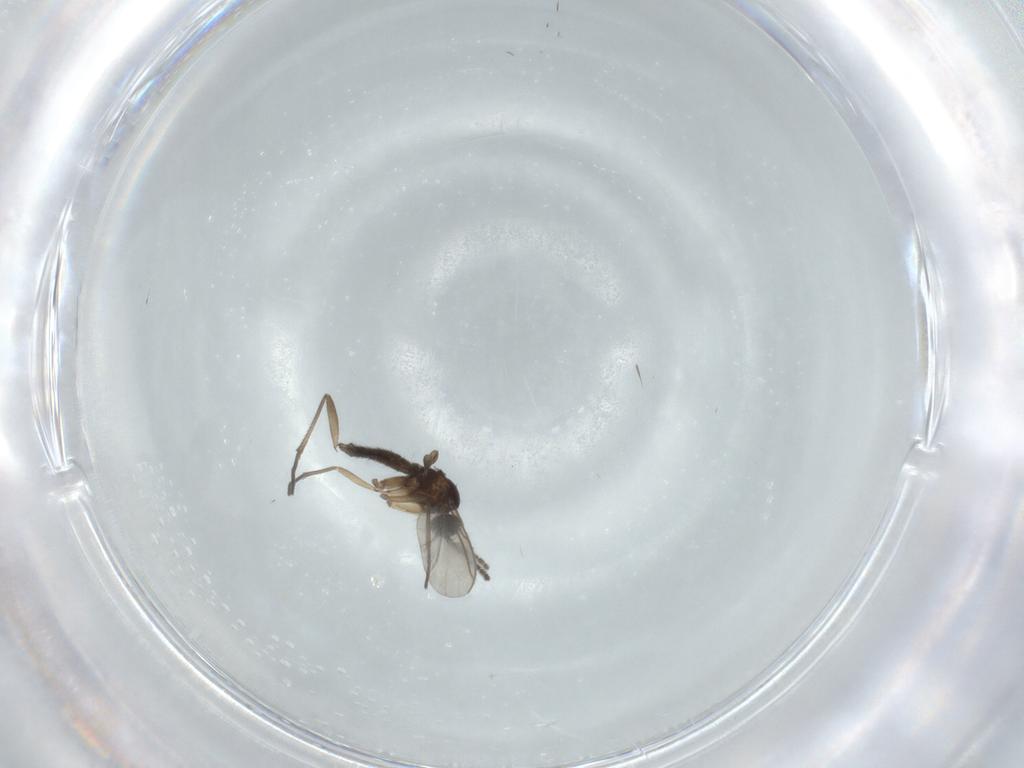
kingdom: Animalia
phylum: Arthropoda
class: Insecta
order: Diptera
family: Sciaridae
